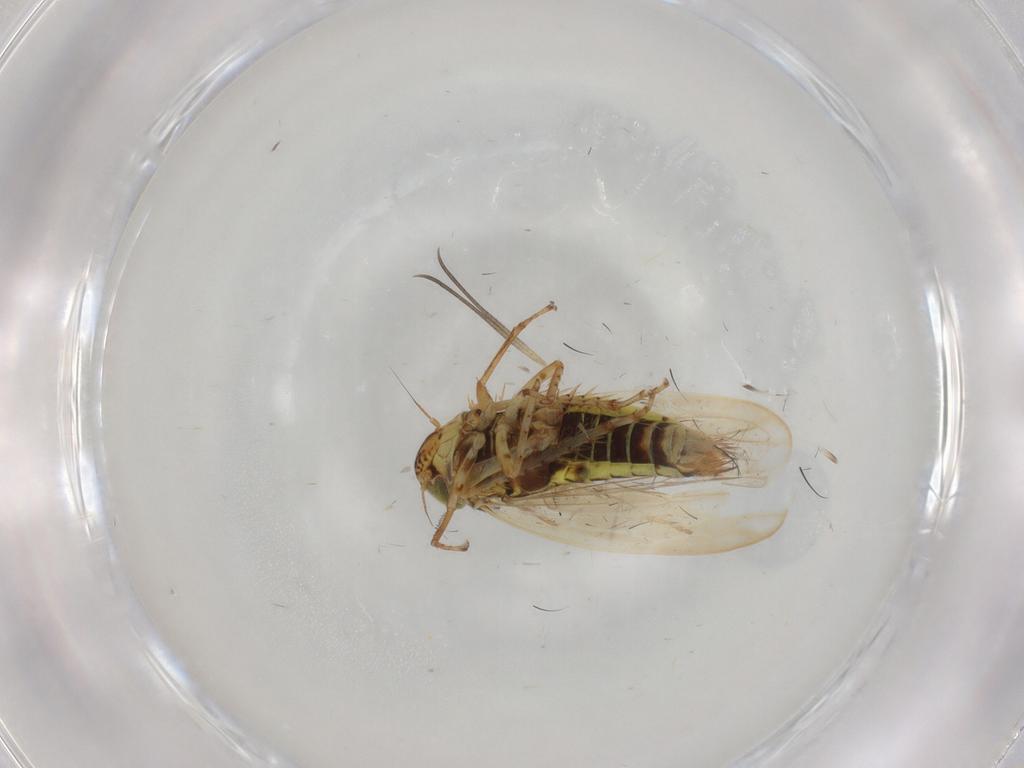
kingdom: Animalia
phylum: Arthropoda
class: Insecta
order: Hemiptera
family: Cicadellidae
